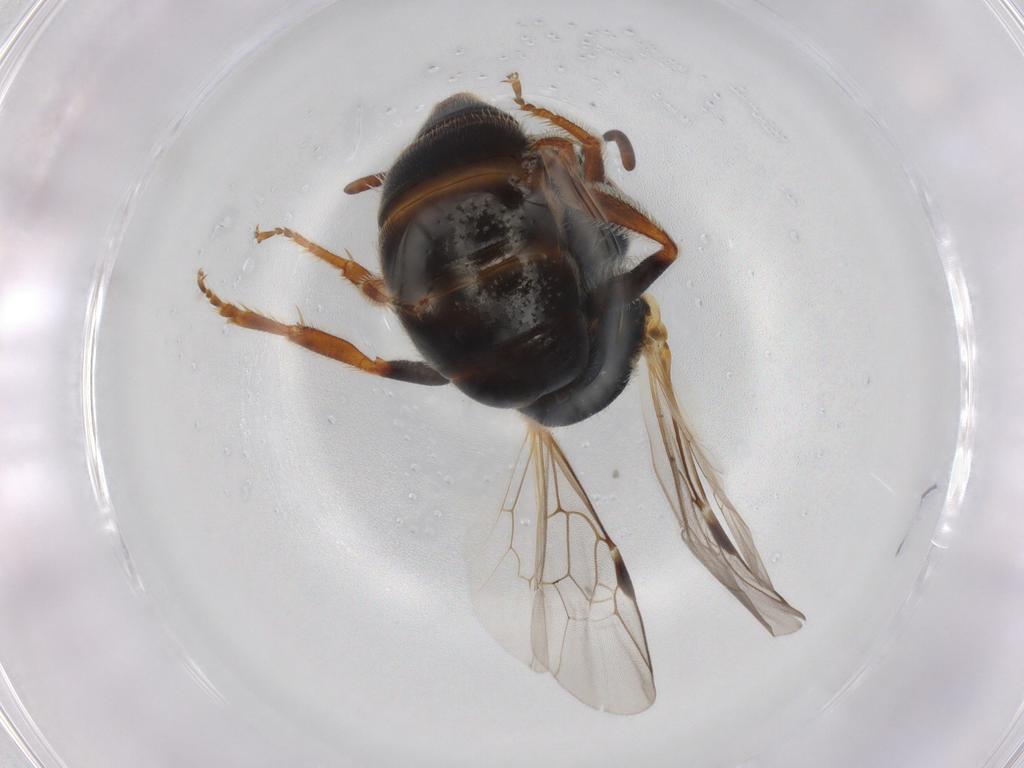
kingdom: Animalia
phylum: Arthropoda
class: Insecta
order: Hymenoptera
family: Halictidae
